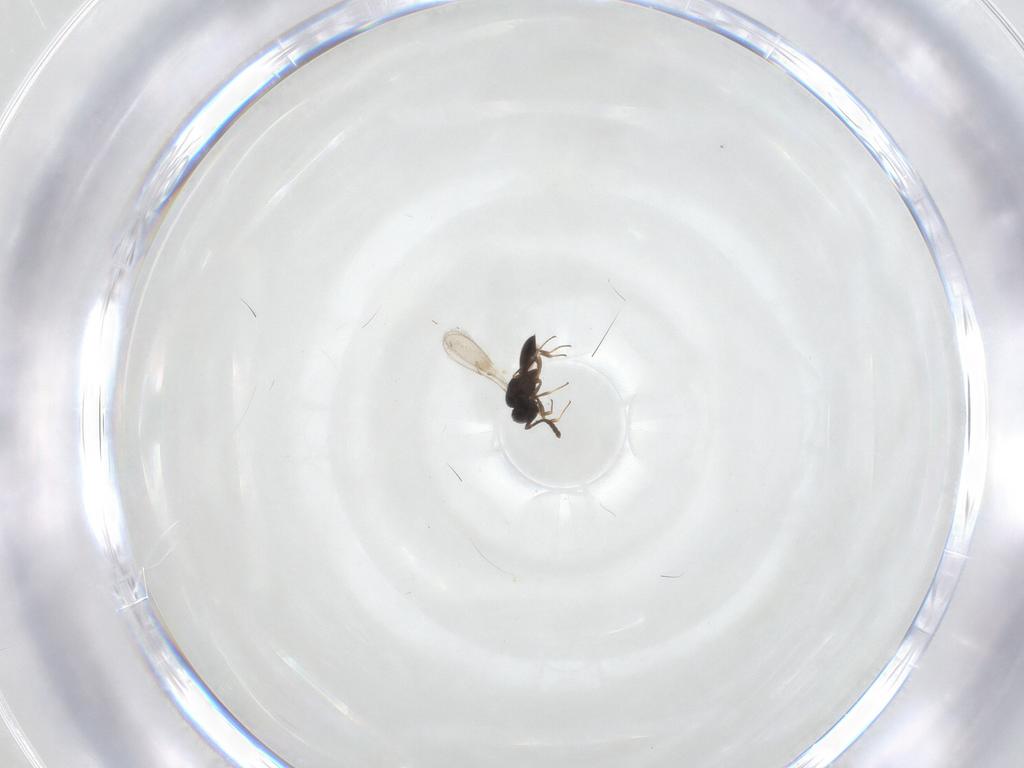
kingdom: Animalia
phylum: Arthropoda
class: Insecta
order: Hymenoptera
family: Scelionidae
